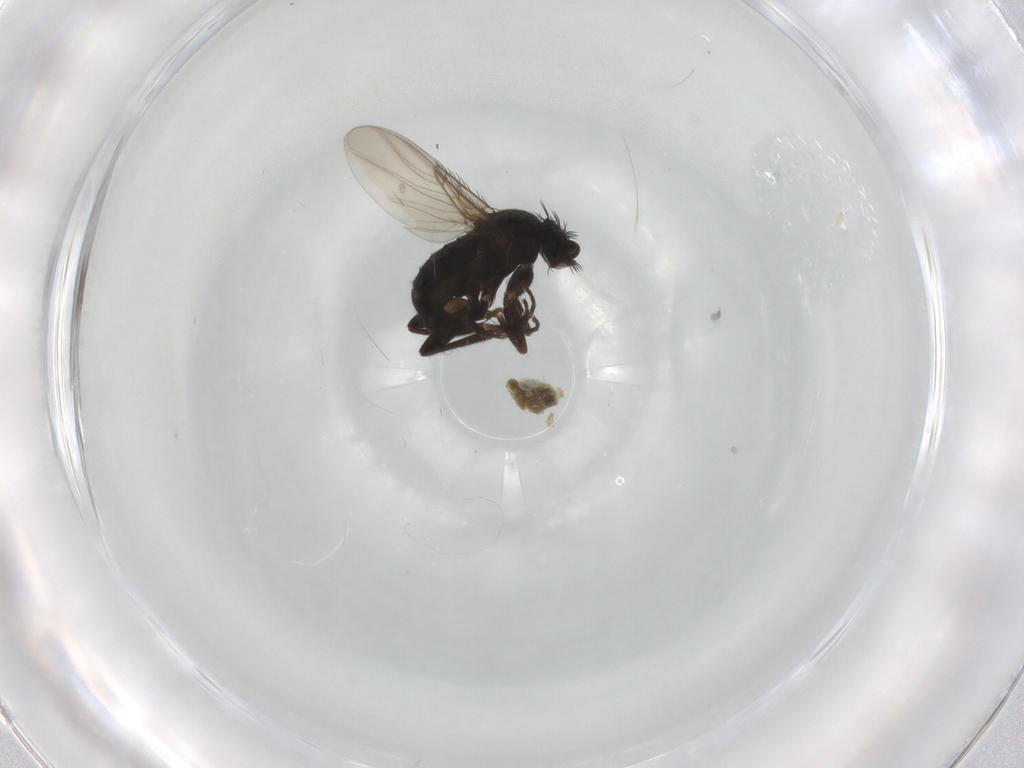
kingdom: Animalia
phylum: Arthropoda
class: Insecta
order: Diptera
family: Phoridae
